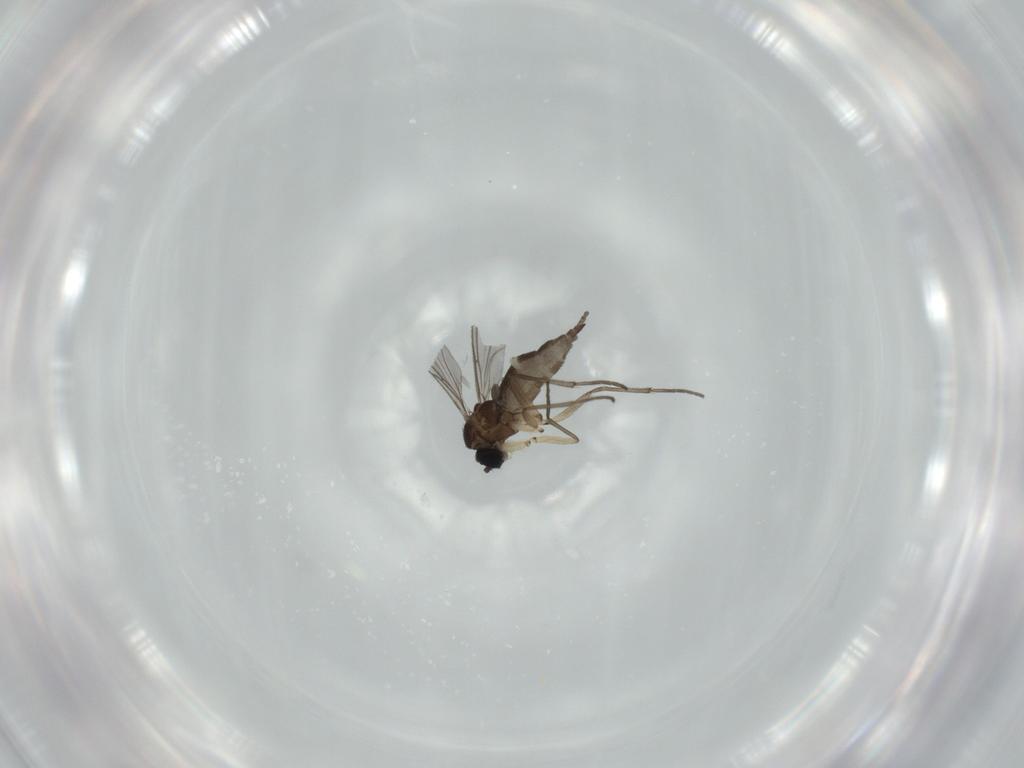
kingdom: Animalia
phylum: Arthropoda
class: Insecta
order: Diptera
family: Sciaridae
